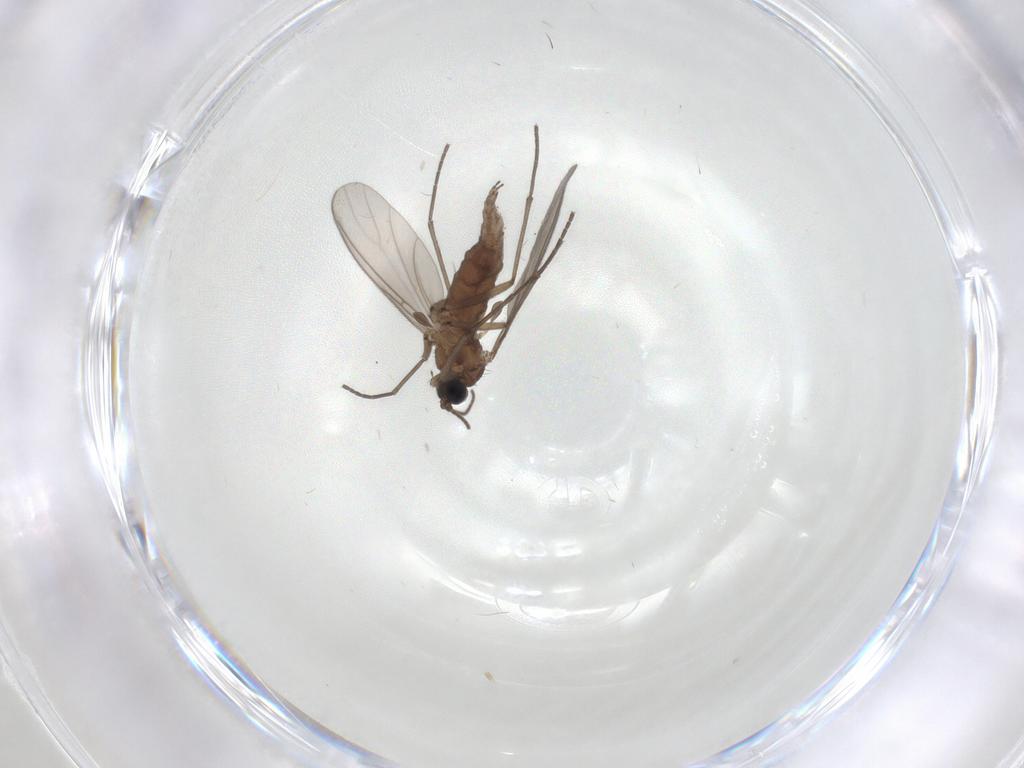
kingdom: Animalia
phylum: Arthropoda
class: Insecta
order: Diptera
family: Sciaridae
